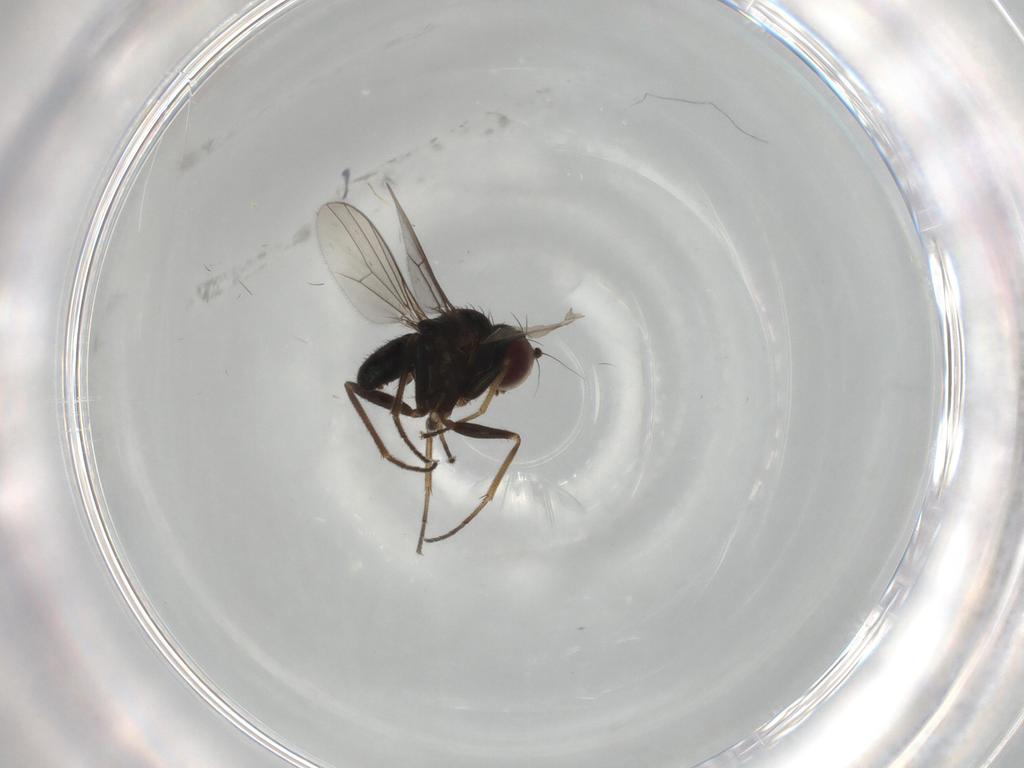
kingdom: Animalia
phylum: Arthropoda
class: Insecta
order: Diptera
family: Dolichopodidae
